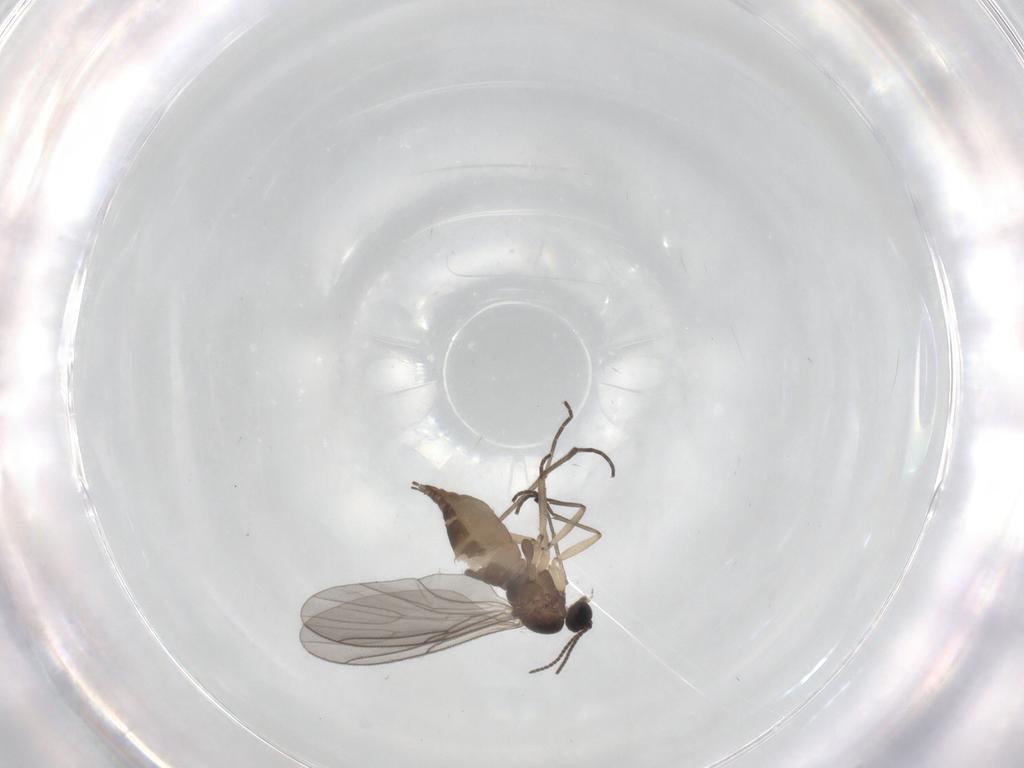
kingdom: Animalia
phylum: Arthropoda
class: Insecta
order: Diptera
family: Sciaridae
